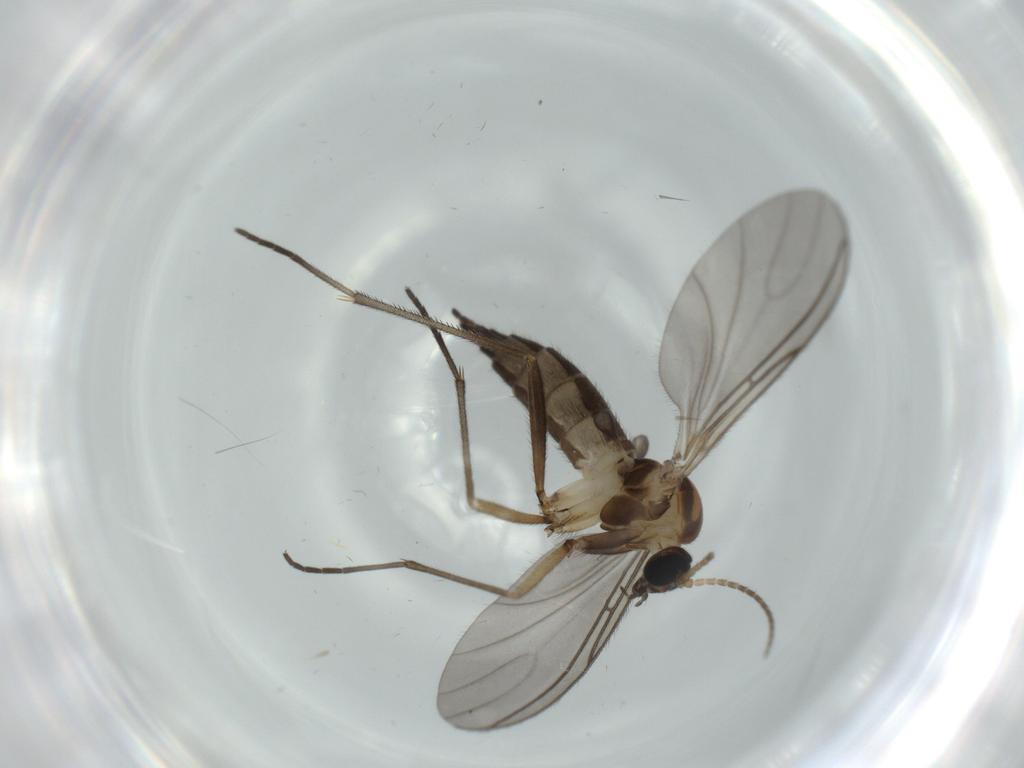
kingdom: Animalia
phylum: Arthropoda
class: Insecta
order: Diptera
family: Sciaridae
